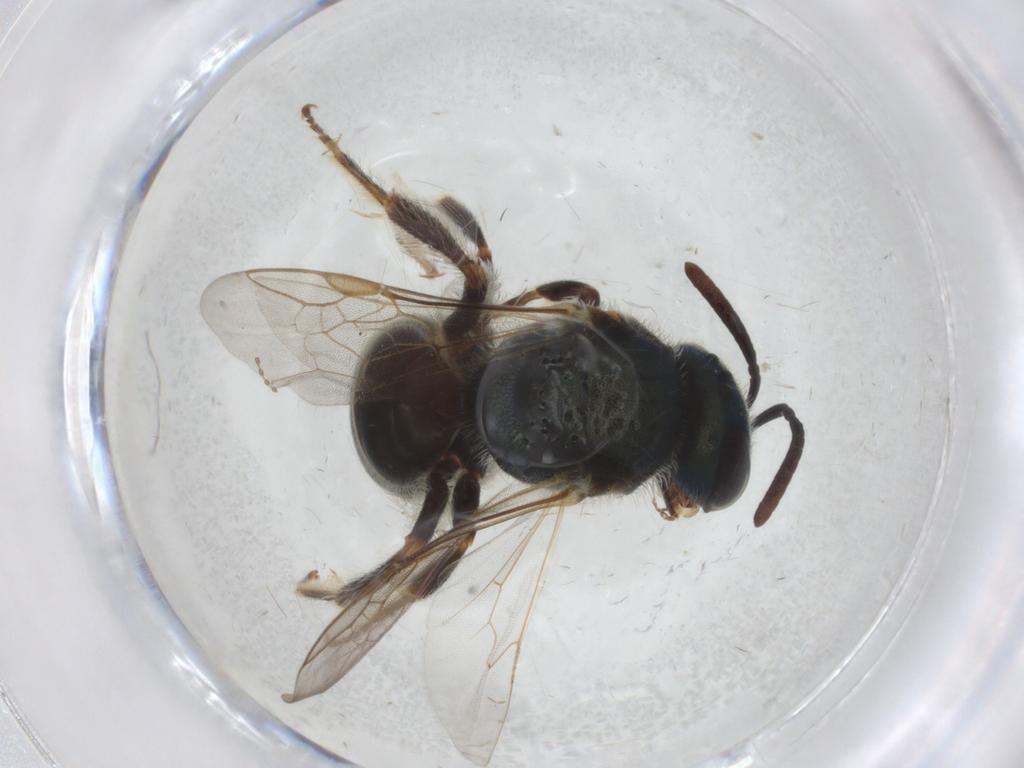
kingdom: Animalia
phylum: Arthropoda
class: Insecta
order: Hymenoptera
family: Halictidae
